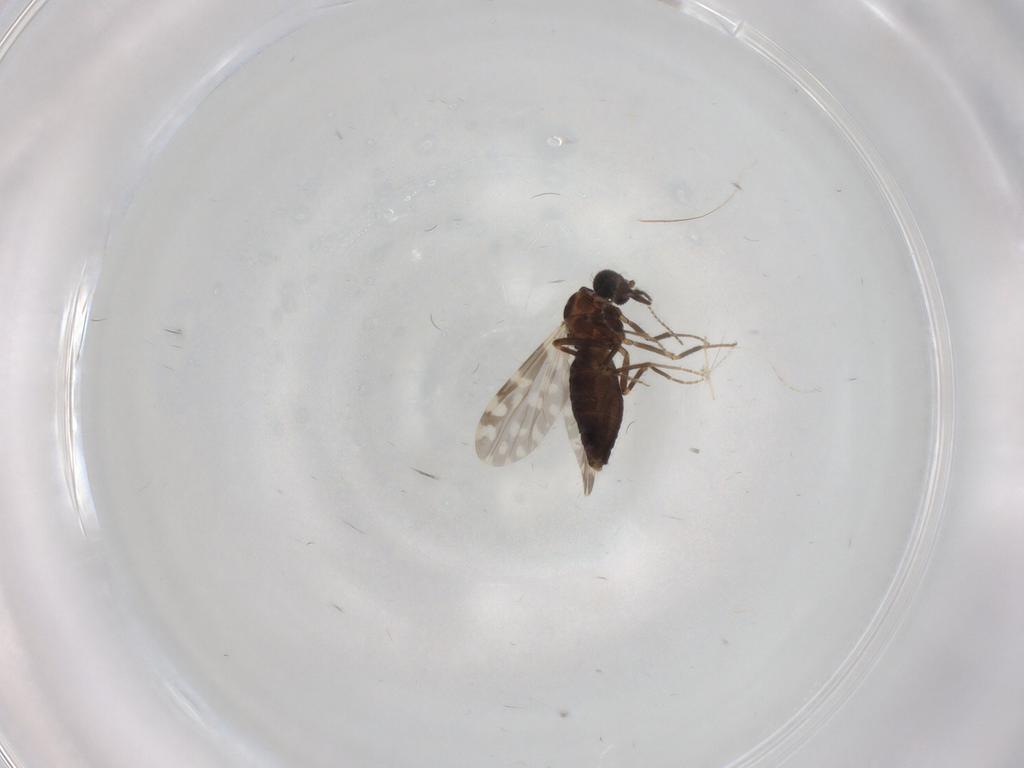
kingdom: Animalia
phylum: Arthropoda
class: Insecta
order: Diptera
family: Ceratopogonidae
